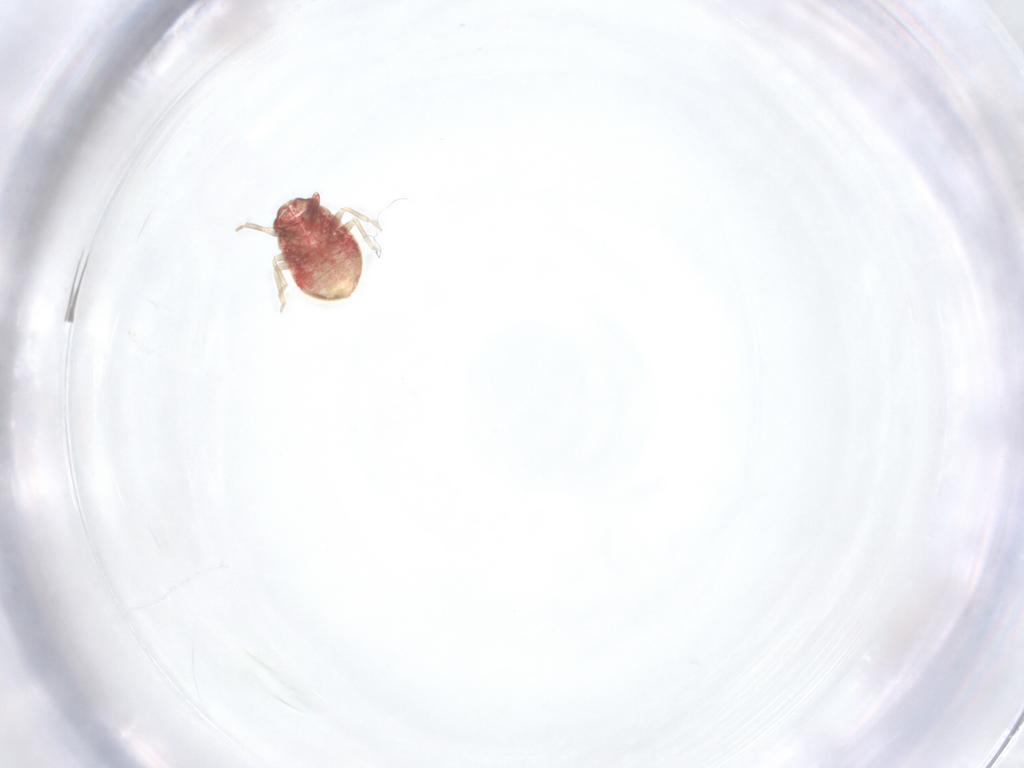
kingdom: Animalia
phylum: Arthropoda
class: Insecta
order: Hemiptera
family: Anthocoridae
